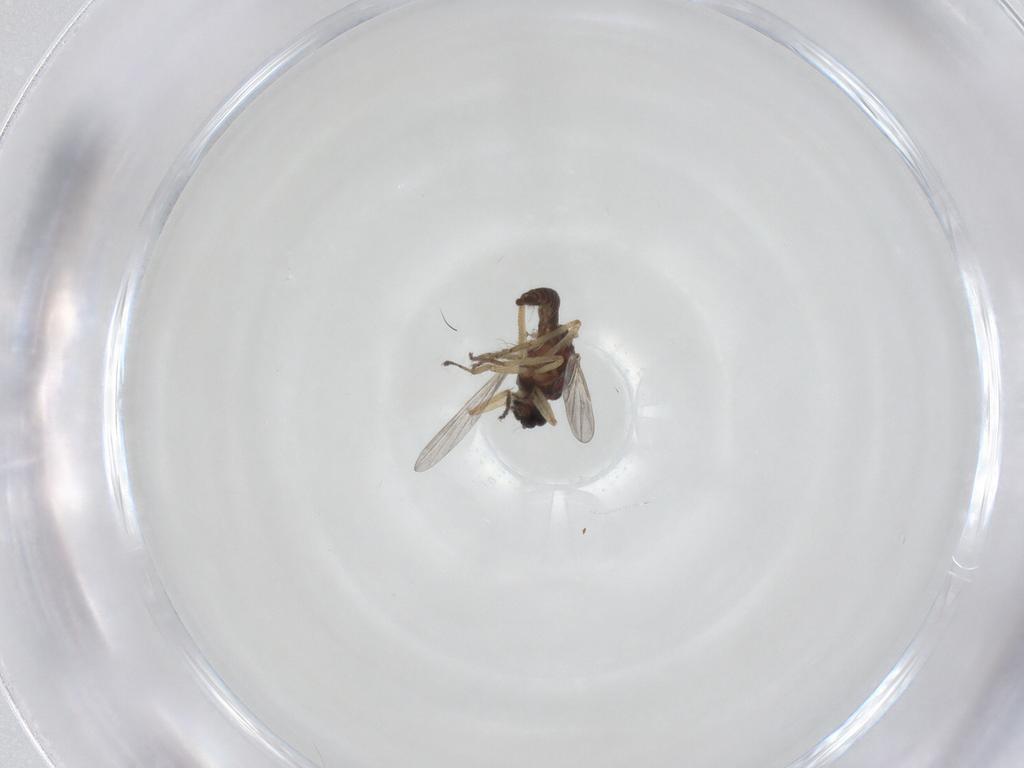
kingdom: Animalia
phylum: Arthropoda
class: Insecta
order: Diptera
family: Ceratopogonidae
